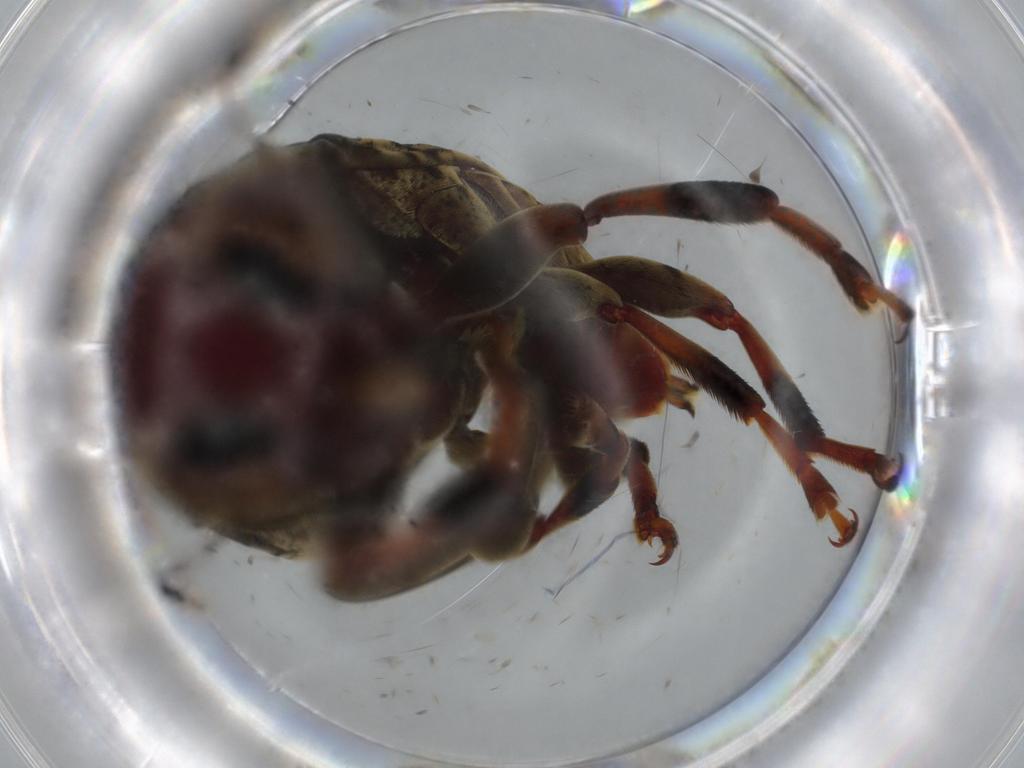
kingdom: Animalia
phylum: Arthropoda
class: Insecta
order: Coleoptera
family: Anthribidae
